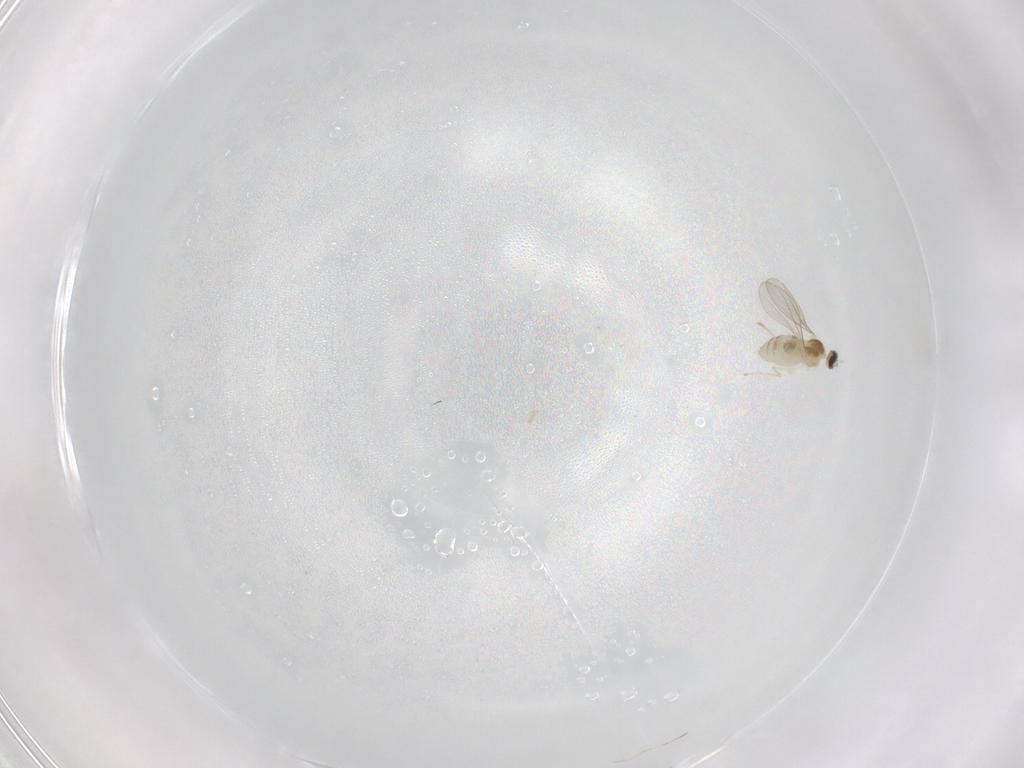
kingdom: Animalia
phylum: Arthropoda
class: Insecta
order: Diptera
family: Cecidomyiidae
